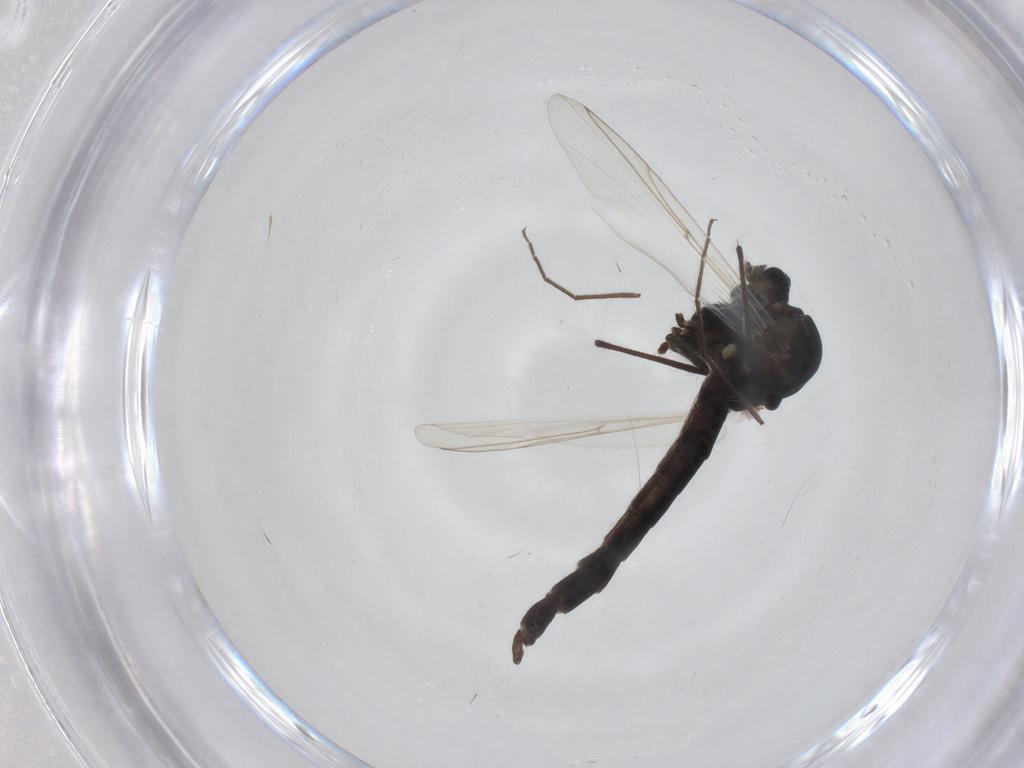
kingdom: Animalia
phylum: Arthropoda
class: Insecta
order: Diptera
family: Chironomidae
